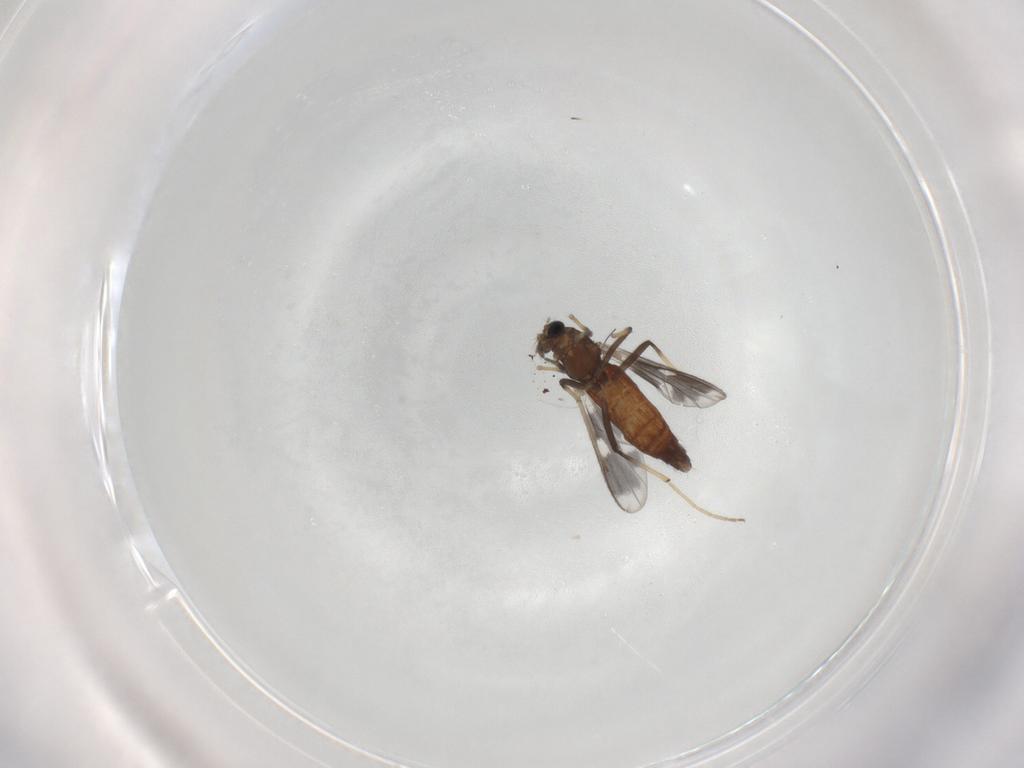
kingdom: Animalia
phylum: Arthropoda
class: Insecta
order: Diptera
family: Chironomidae
